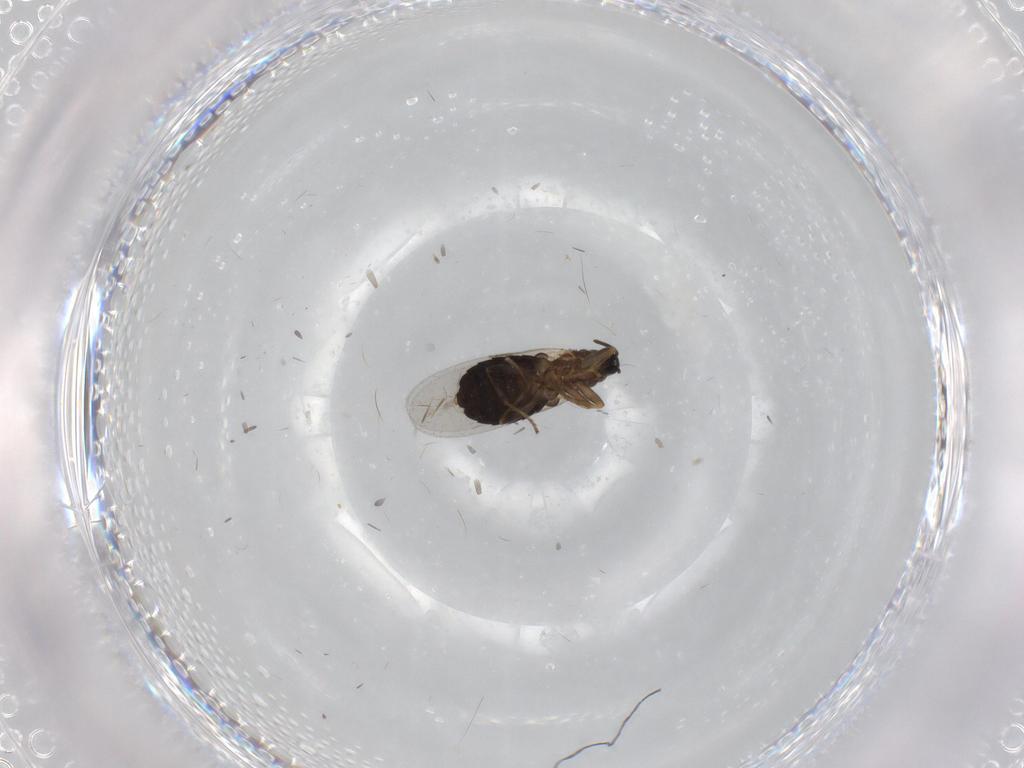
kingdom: Animalia
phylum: Arthropoda
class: Insecta
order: Diptera
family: Scatopsidae
